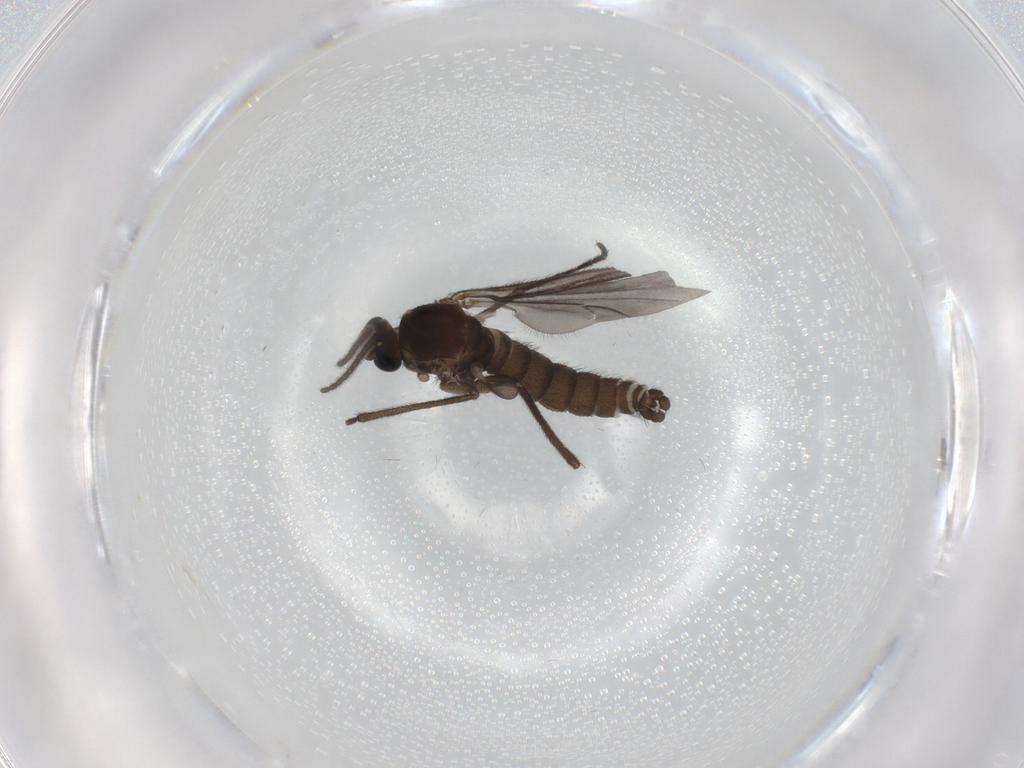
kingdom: Animalia
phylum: Arthropoda
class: Insecta
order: Diptera
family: Sciaridae
